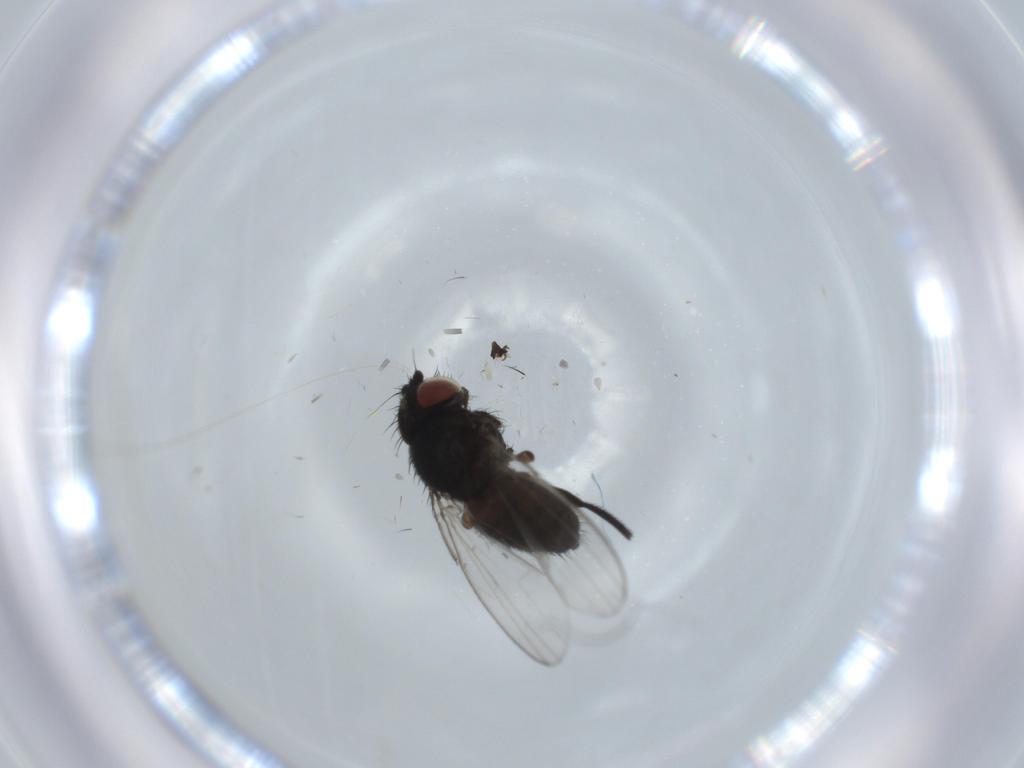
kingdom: Animalia
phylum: Arthropoda
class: Insecta
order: Diptera
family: Milichiidae
